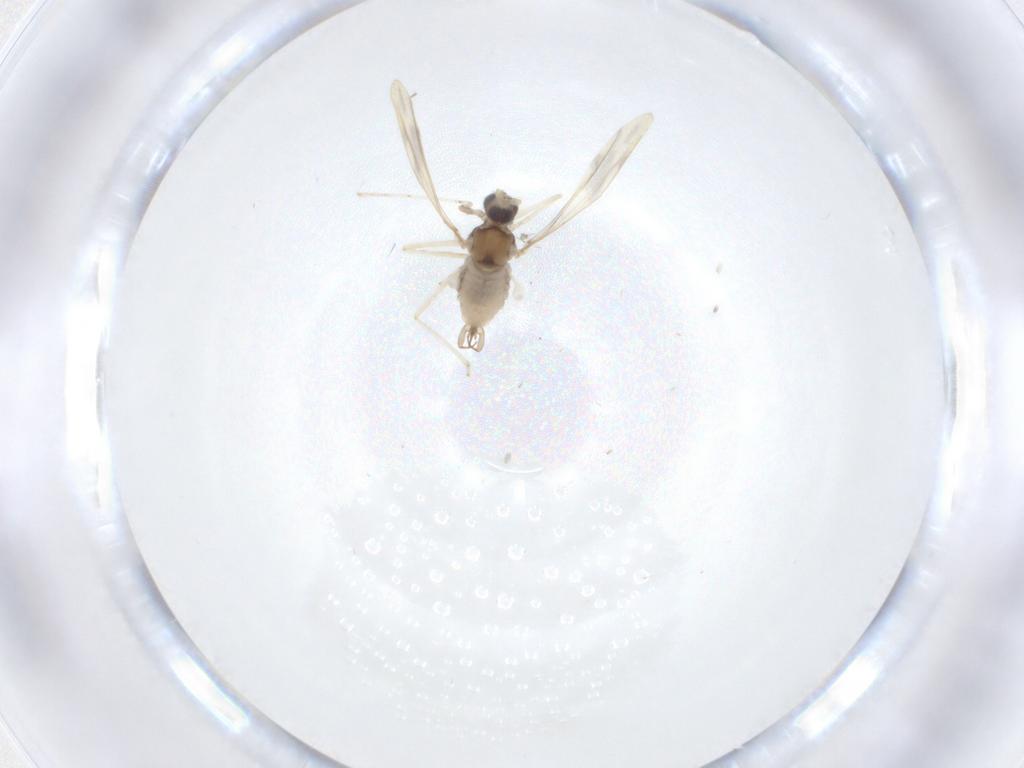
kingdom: Animalia
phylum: Arthropoda
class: Insecta
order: Diptera
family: Cecidomyiidae
